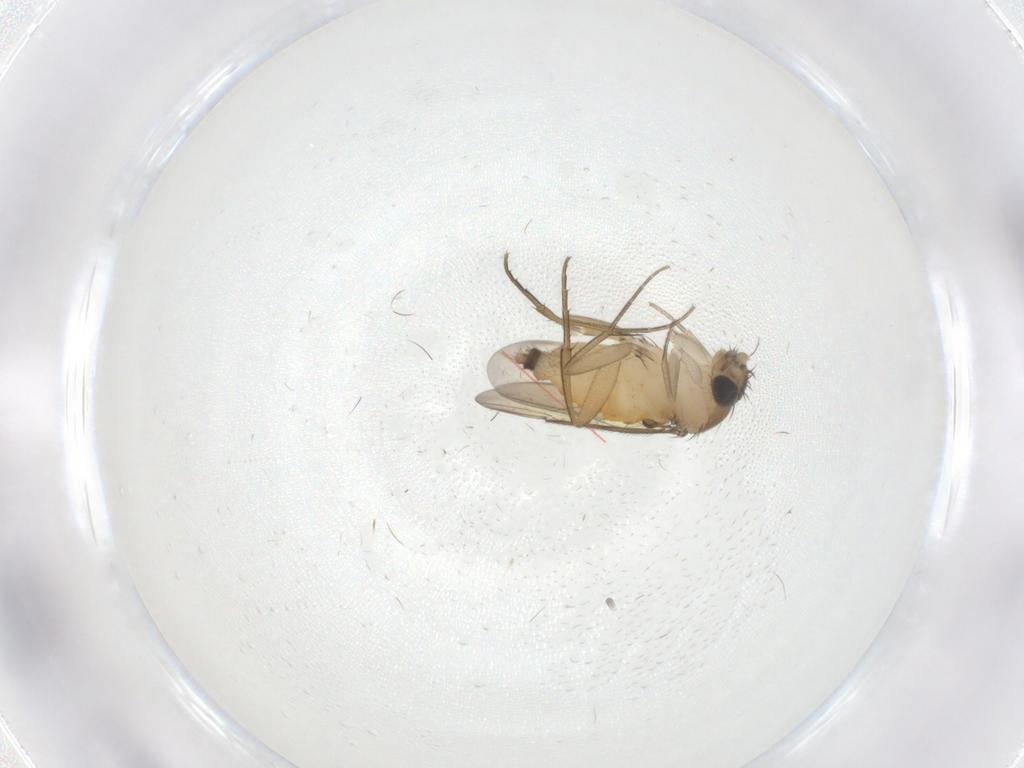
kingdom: Animalia
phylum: Arthropoda
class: Insecta
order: Diptera
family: Phoridae
